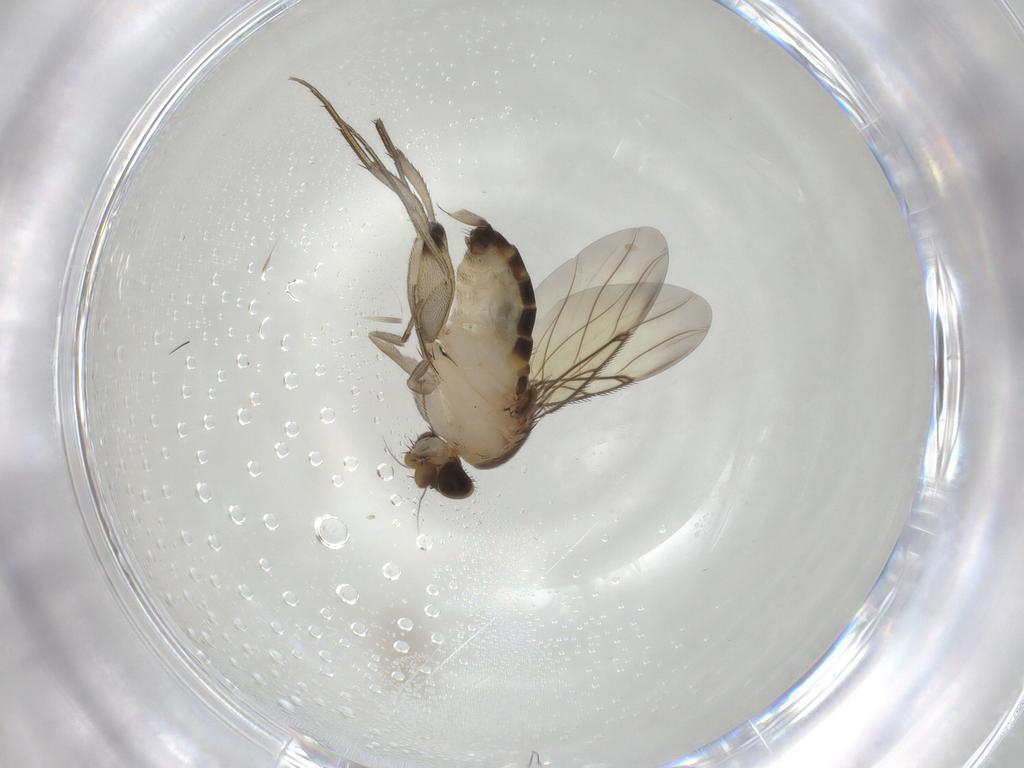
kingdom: Animalia
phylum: Arthropoda
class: Insecta
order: Diptera
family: Phoridae
